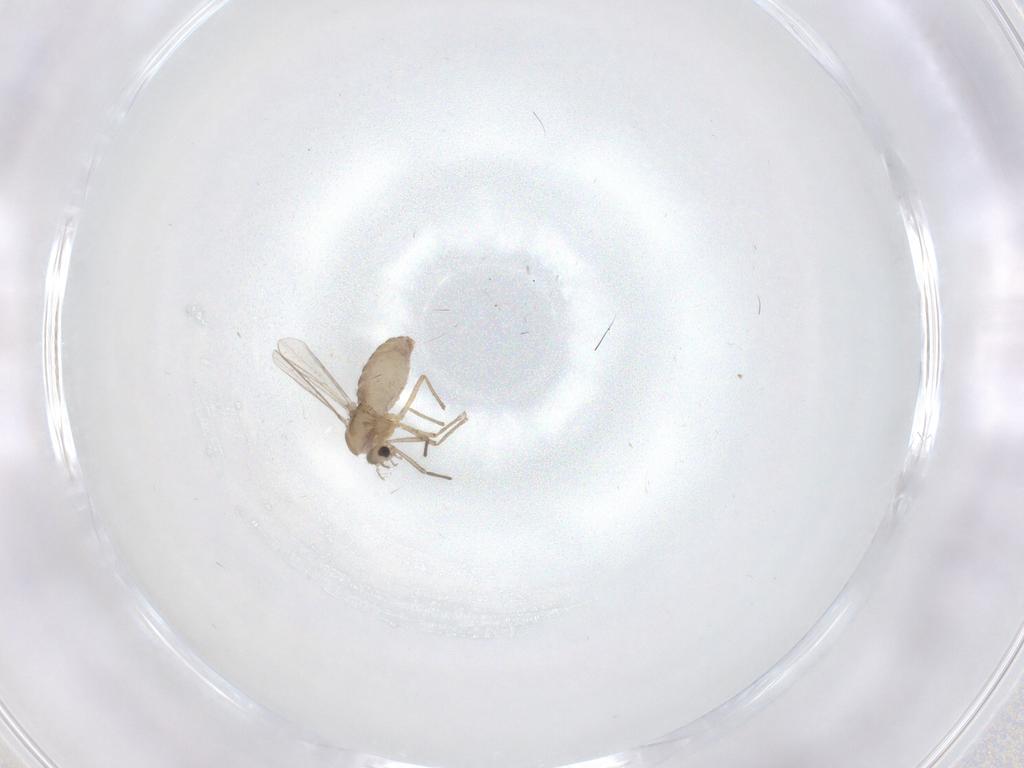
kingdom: Animalia
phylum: Arthropoda
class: Insecta
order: Diptera
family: Chironomidae
